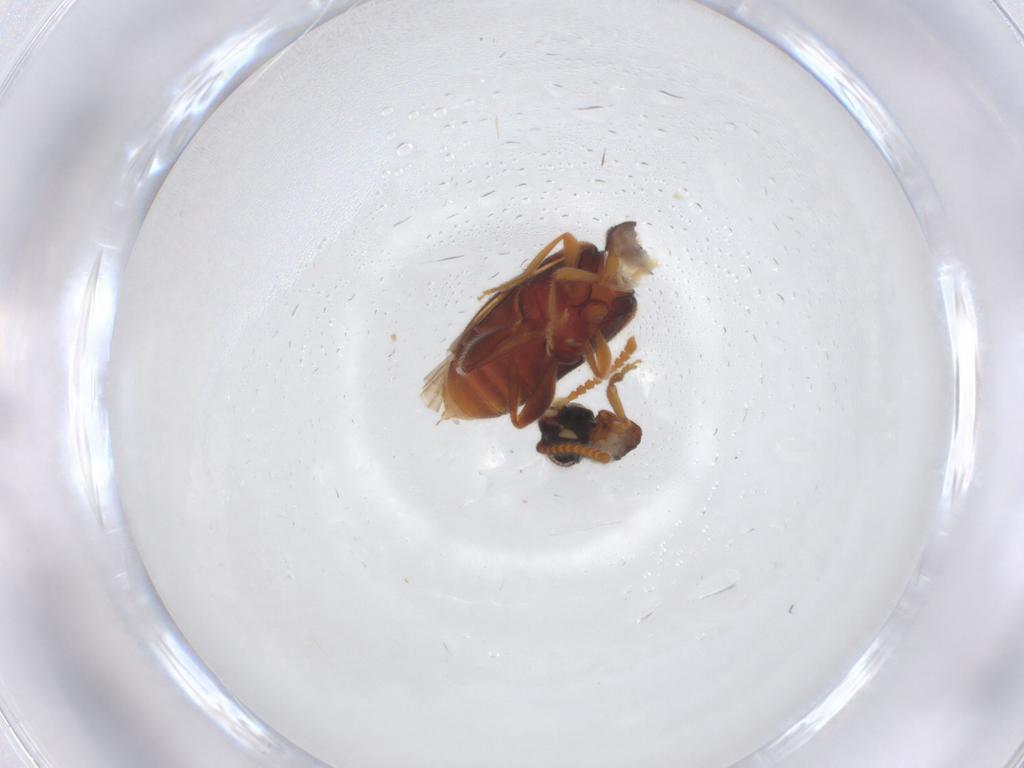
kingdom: Animalia
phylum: Arthropoda
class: Insecta
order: Coleoptera
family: Aderidae
